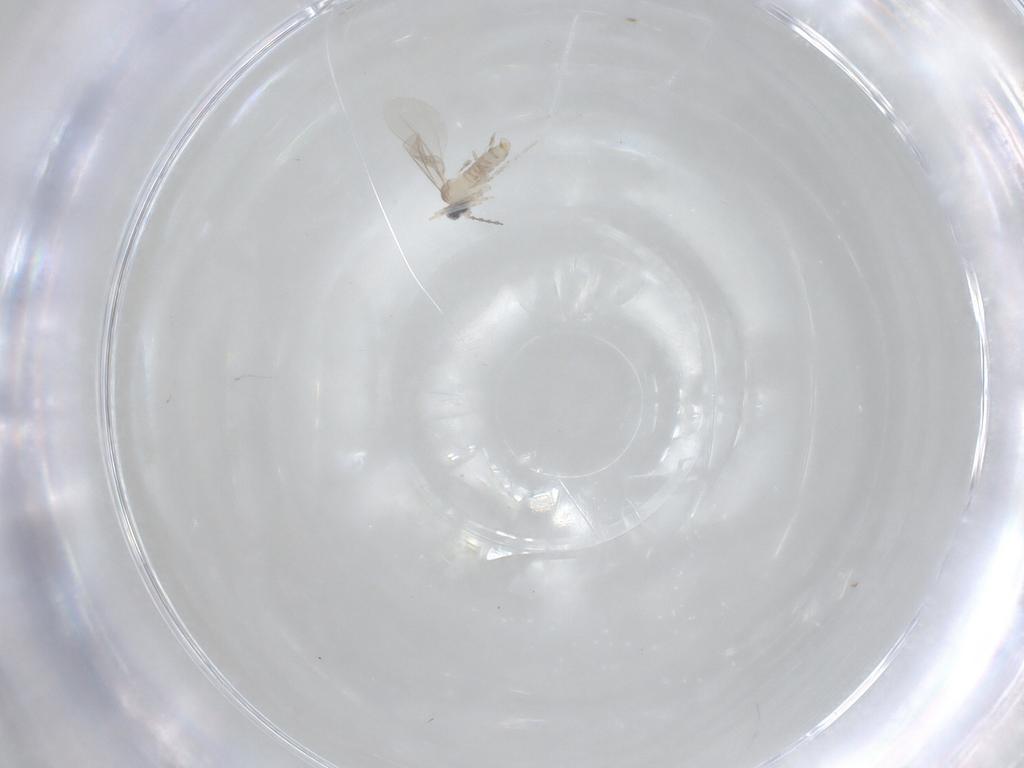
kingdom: Animalia
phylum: Arthropoda
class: Insecta
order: Diptera
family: Cecidomyiidae
